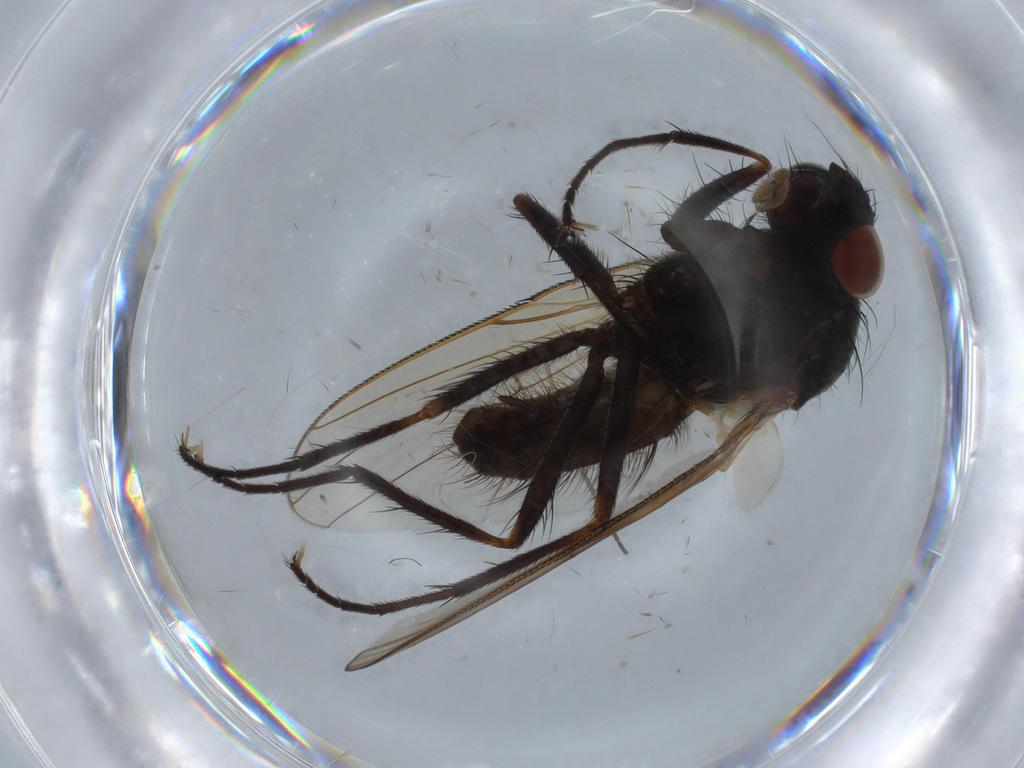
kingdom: Animalia
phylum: Arthropoda
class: Insecta
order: Diptera
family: Anthomyiidae
